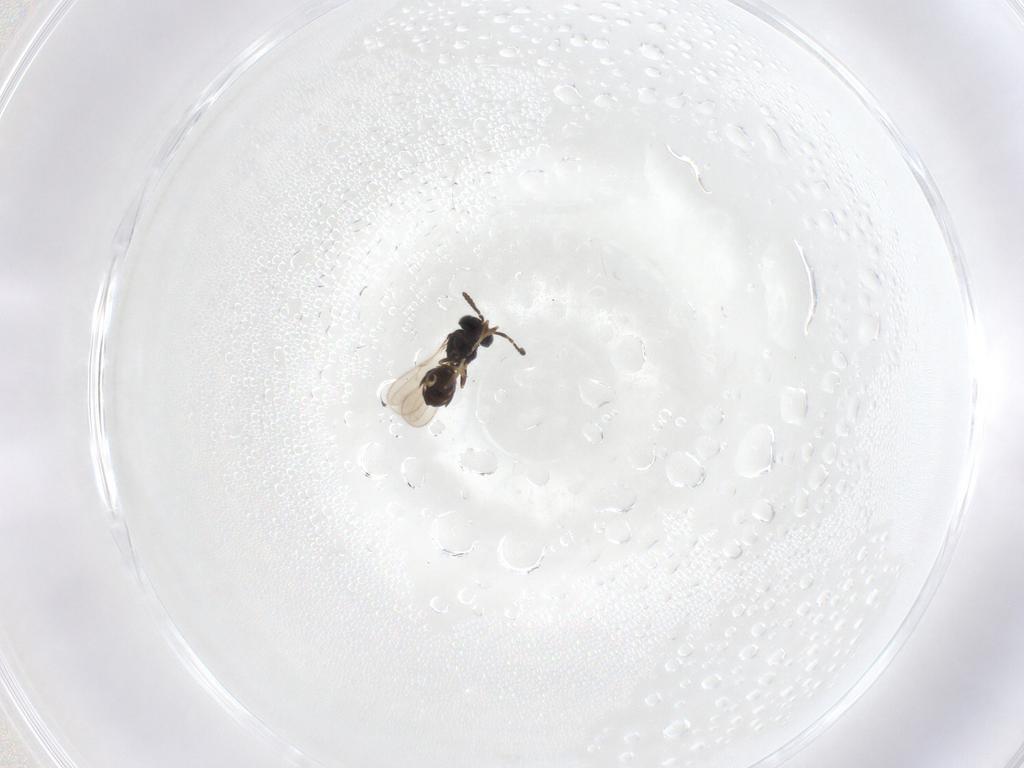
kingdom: Animalia
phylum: Arthropoda
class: Insecta
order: Hymenoptera
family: Scelionidae
